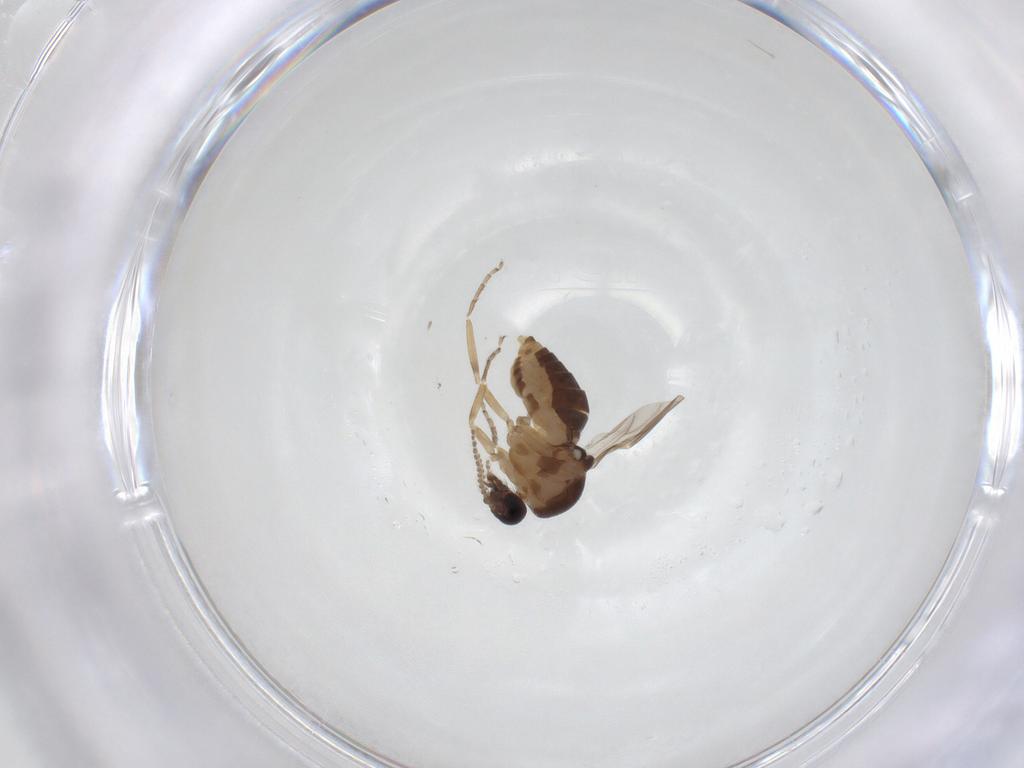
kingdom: Animalia
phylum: Arthropoda
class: Insecta
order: Diptera
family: Ceratopogonidae
